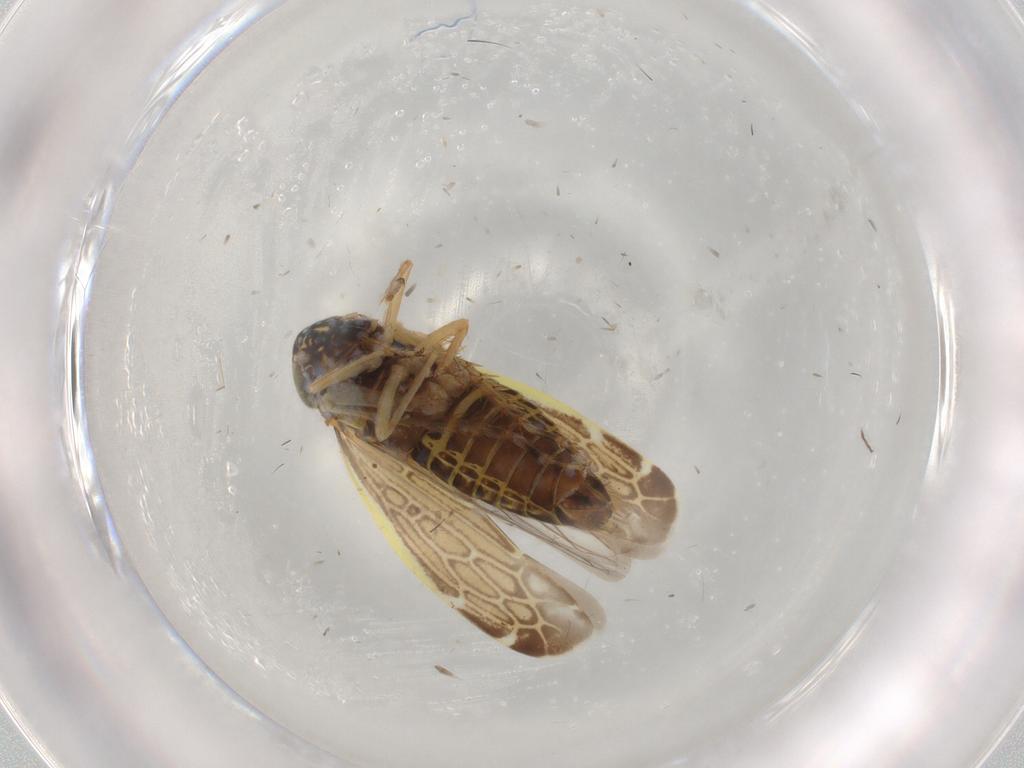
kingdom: Animalia
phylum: Arthropoda
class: Insecta
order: Hemiptera
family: Cicadellidae
